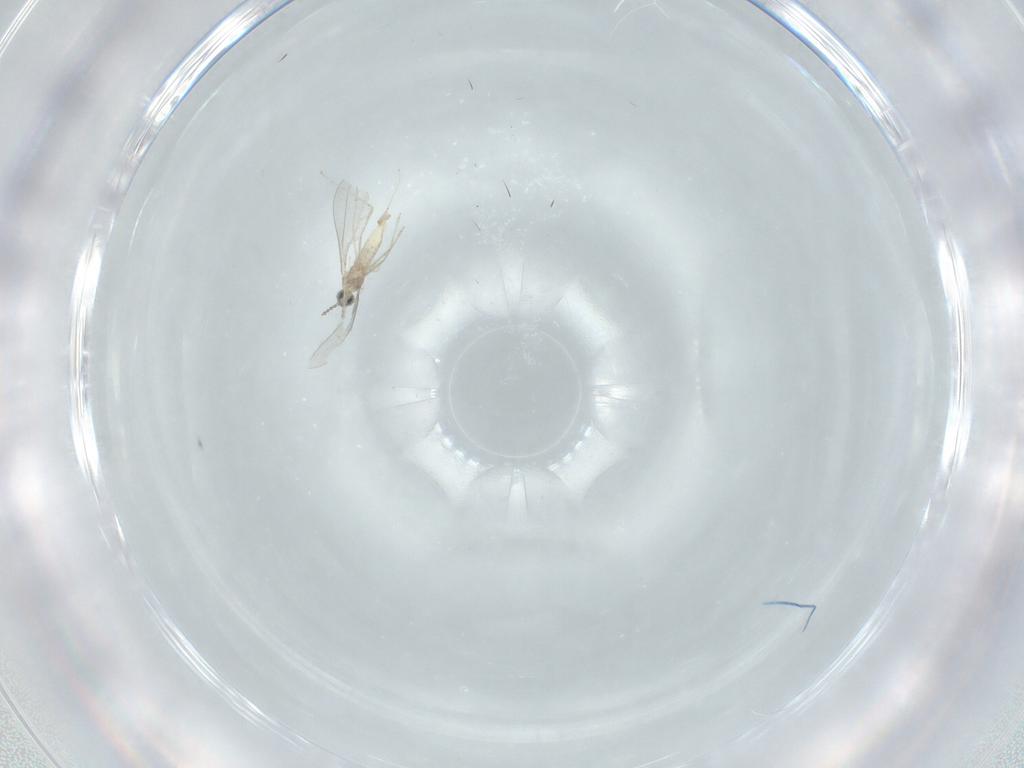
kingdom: Animalia
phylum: Arthropoda
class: Insecta
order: Diptera
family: Cecidomyiidae
